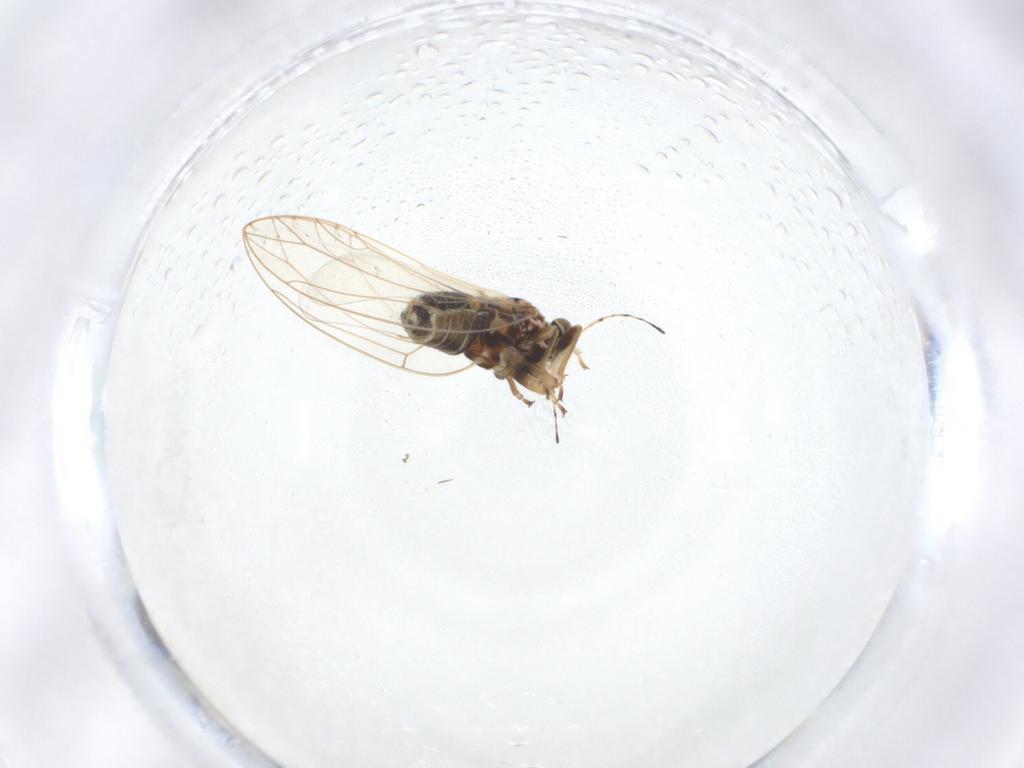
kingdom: Animalia
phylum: Arthropoda
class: Insecta
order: Hemiptera
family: Triozidae
